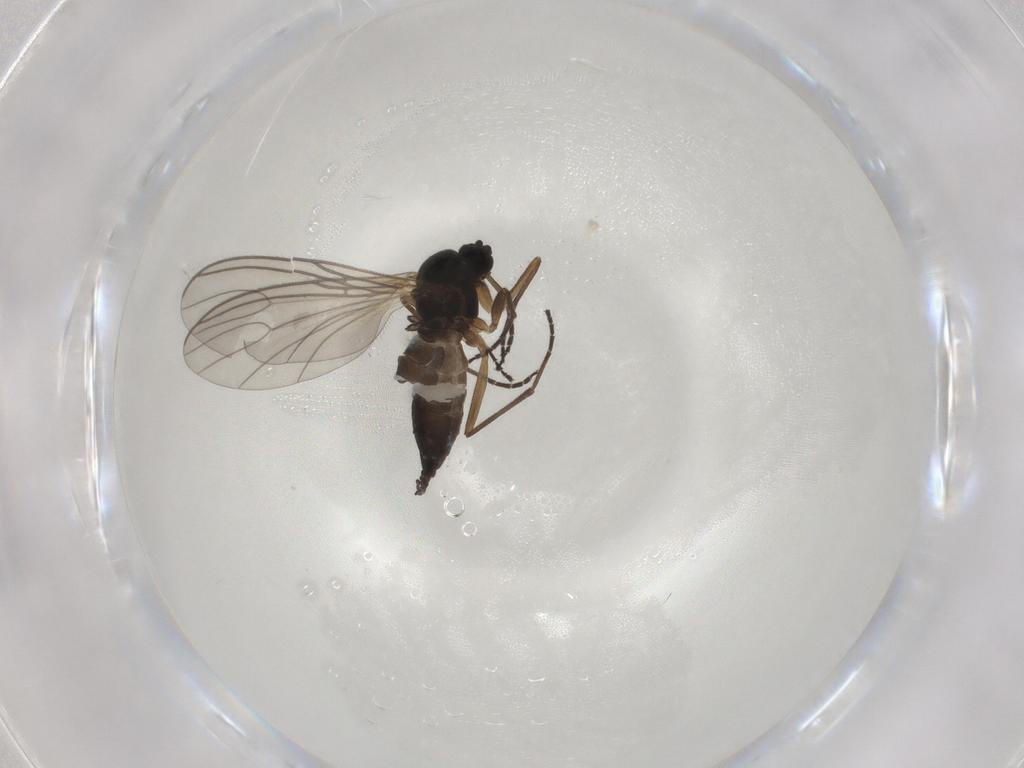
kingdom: Animalia
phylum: Arthropoda
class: Insecta
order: Diptera
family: Sciaridae
